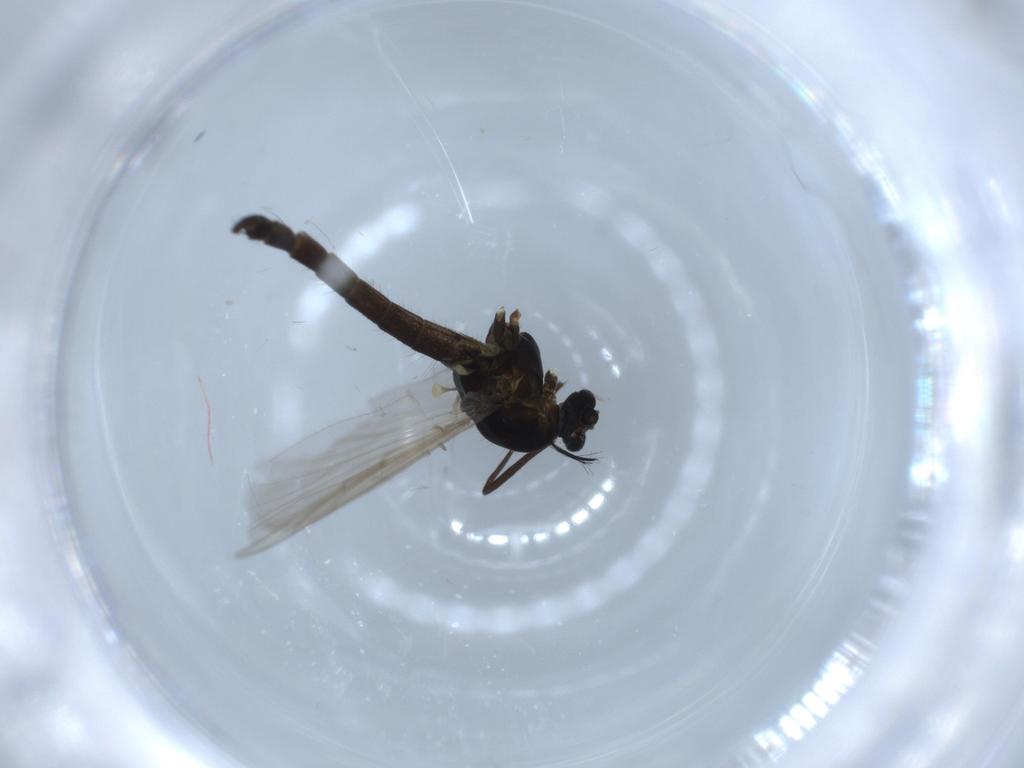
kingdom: Animalia
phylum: Arthropoda
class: Insecta
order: Diptera
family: Chironomidae
